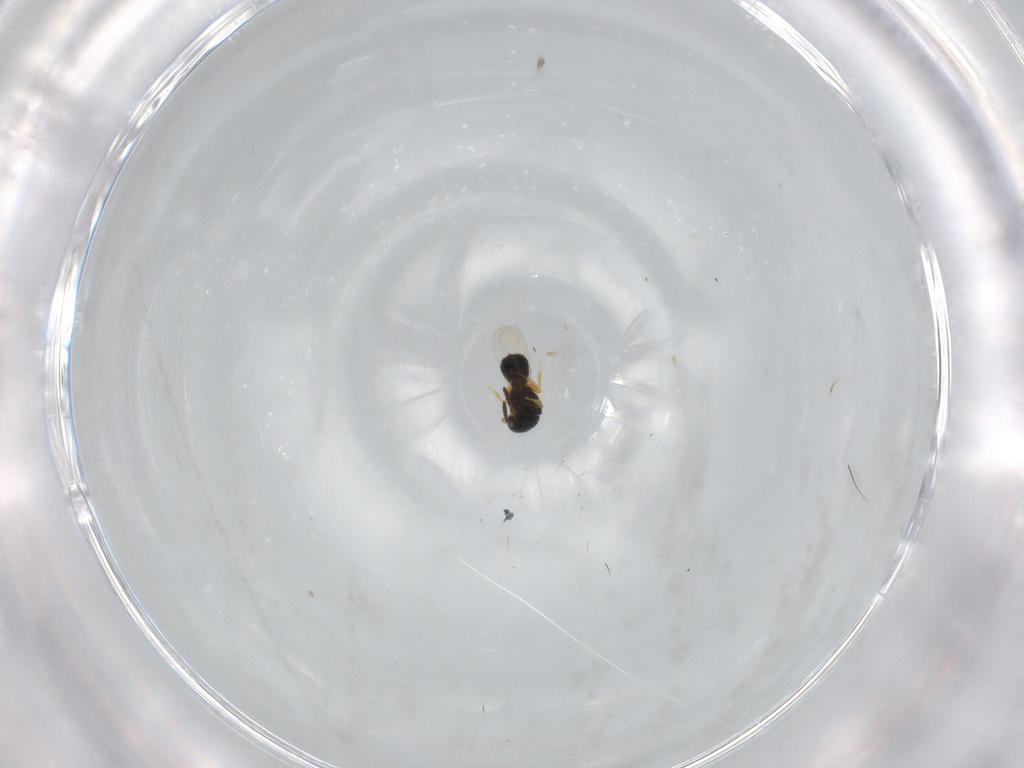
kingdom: Animalia
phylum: Arthropoda
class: Insecta
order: Hymenoptera
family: Scelionidae
